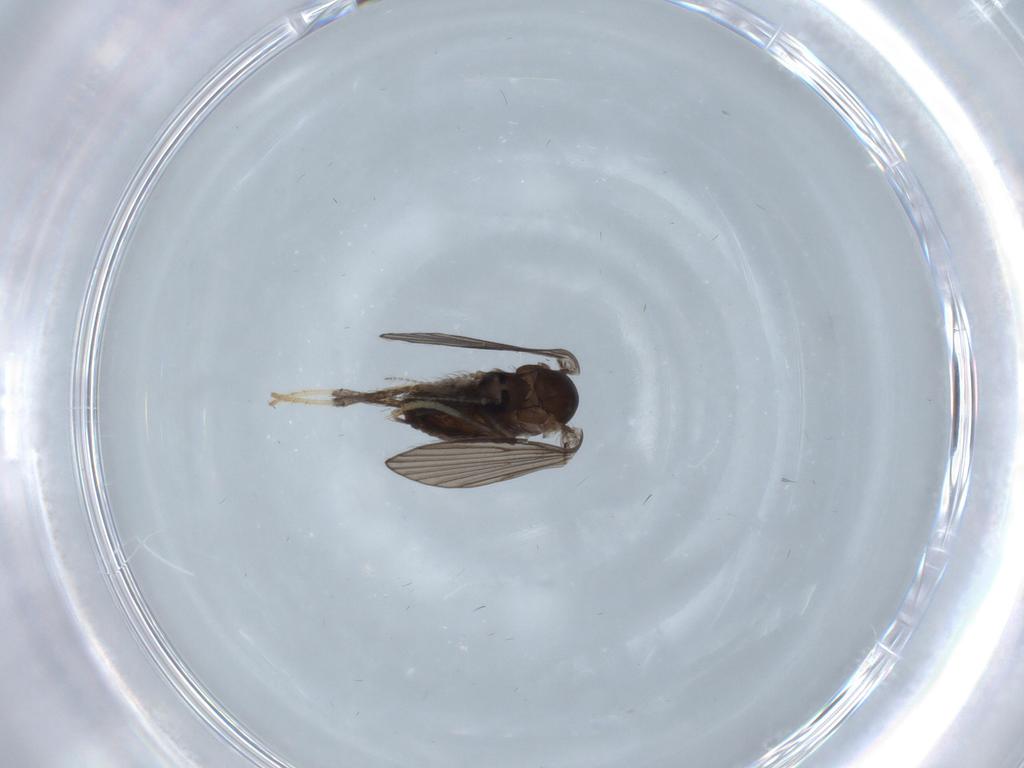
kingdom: Animalia
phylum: Arthropoda
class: Insecta
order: Diptera
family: Psychodidae
